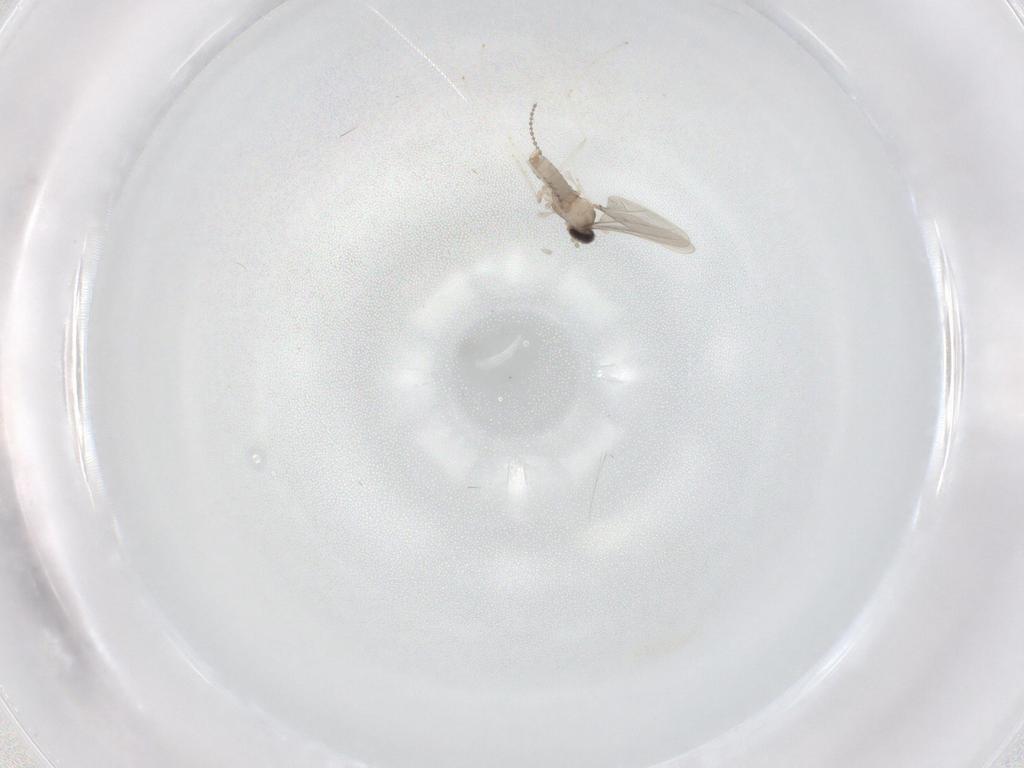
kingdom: Animalia
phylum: Arthropoda
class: Insecta
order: Diptera
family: Cecidomyiidae
